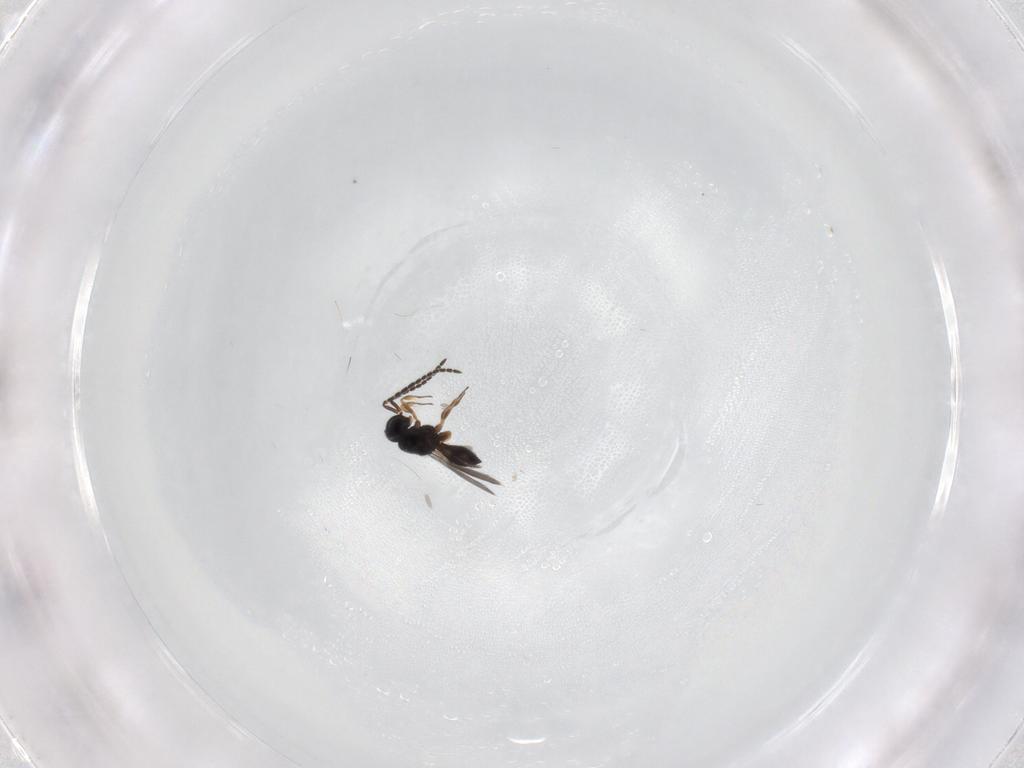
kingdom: Animalia
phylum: Arthropoda
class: Insecta
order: Hymenoptera
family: Scelionidae
